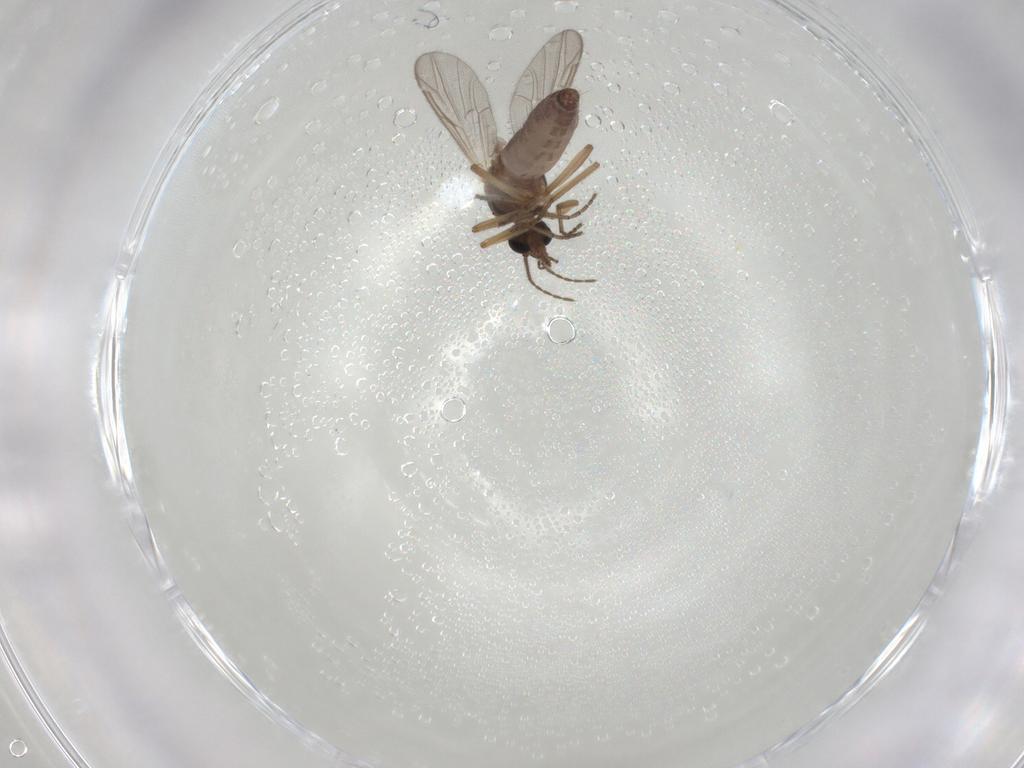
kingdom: Animalia
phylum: Arthropoda
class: Insecta
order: Diptera
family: Ceratopogonidae
